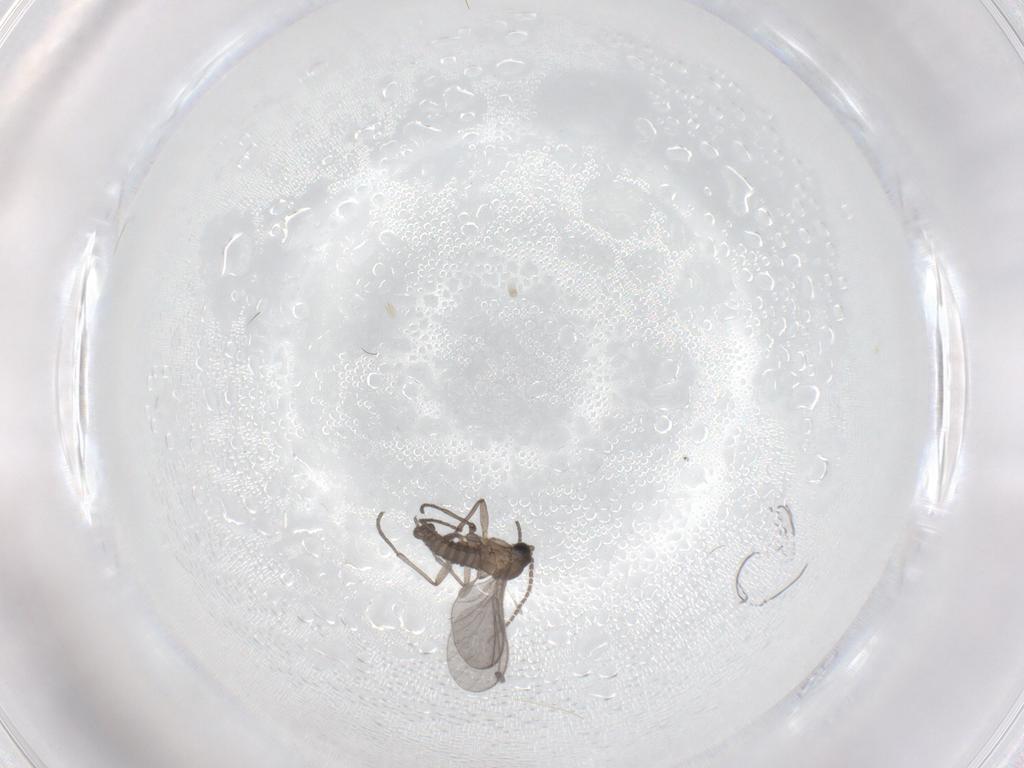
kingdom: Animalia
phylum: Arthropoda
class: Insecta
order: Diptera
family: Sciaridae
